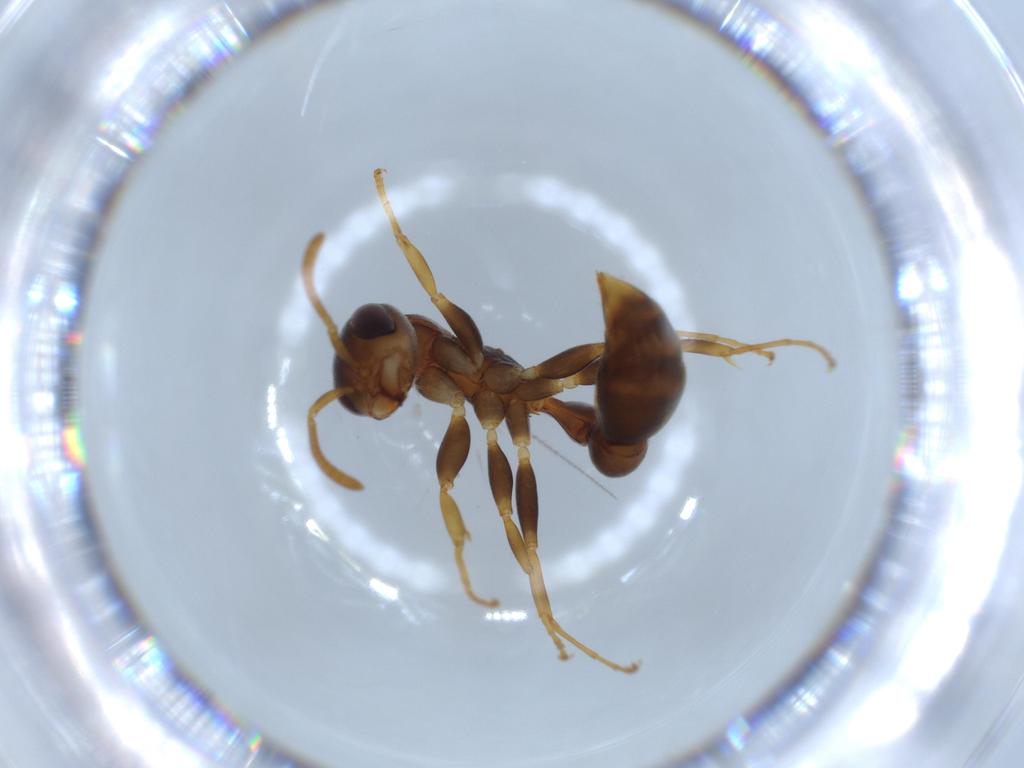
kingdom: Animalia
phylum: Arthropoda
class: Insecta
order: Hymenoptera
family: Formicidae
